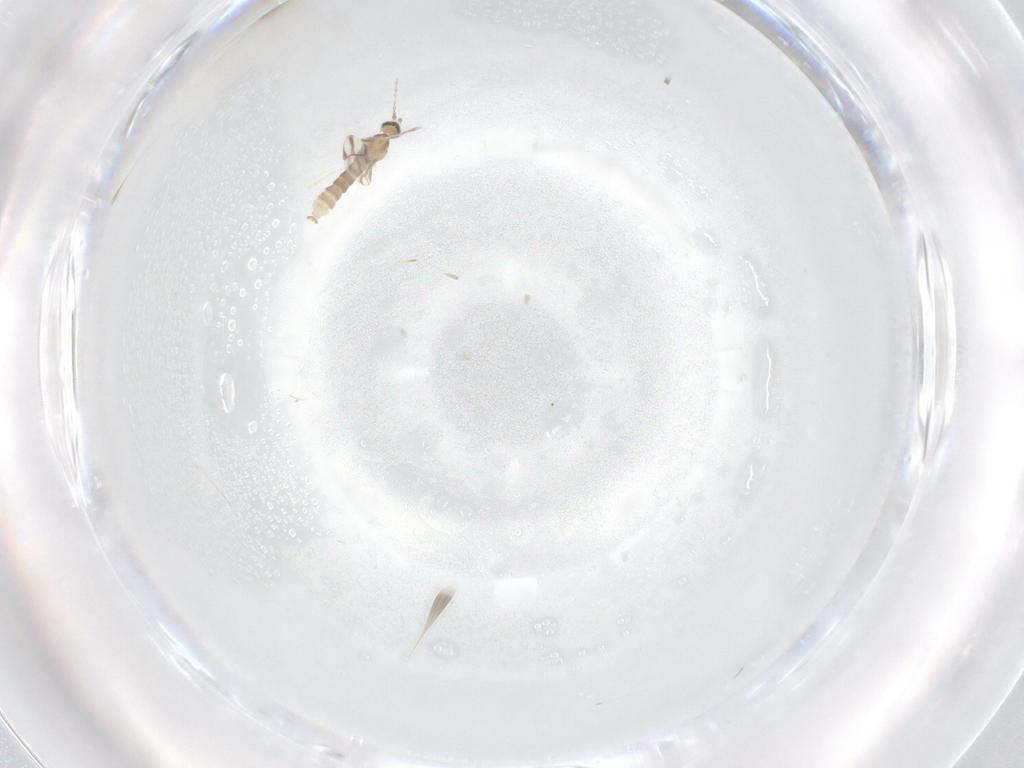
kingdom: Animalia
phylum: Arthropoda
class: Insecta
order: Diptera
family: Cecidomyiidae
